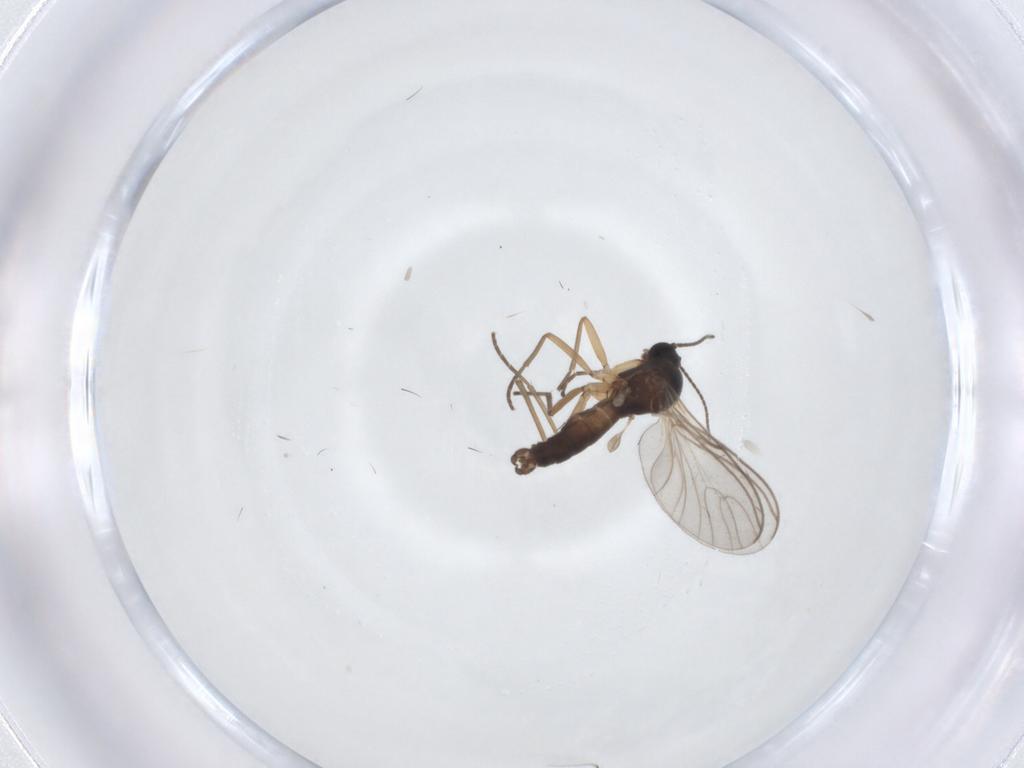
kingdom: Animalia
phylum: Arthropoda
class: Insecta
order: Diptera
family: Sciaridae
